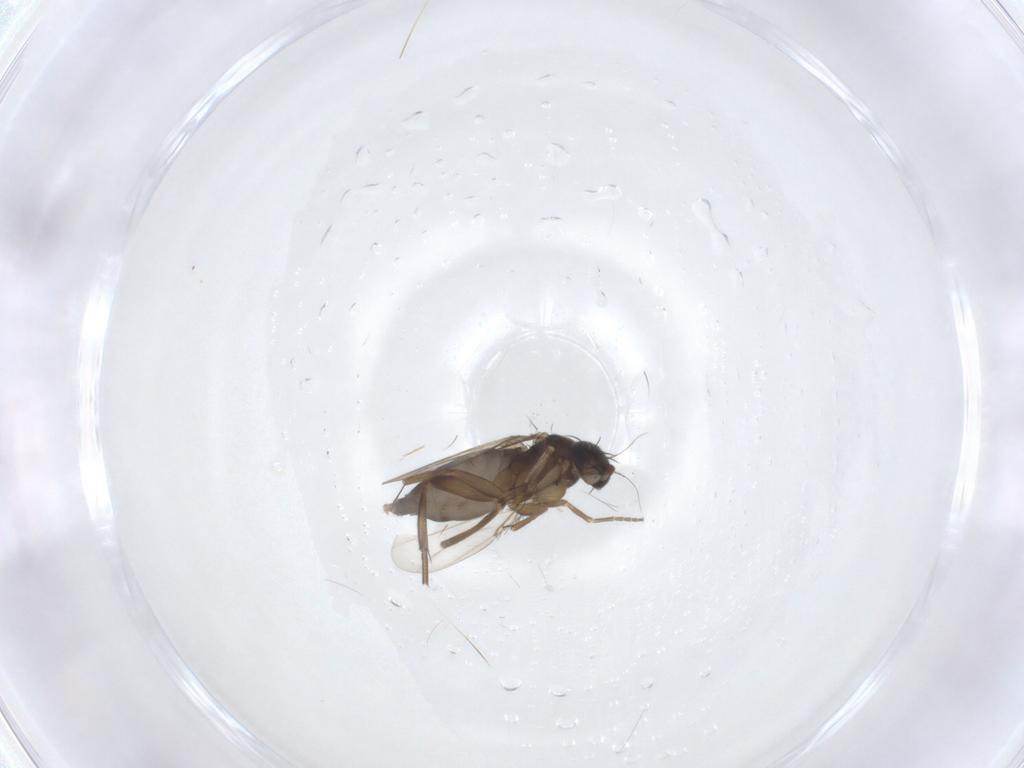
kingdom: Animalia
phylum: Arthropoda
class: Insecta
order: Diptera
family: Phoridae
